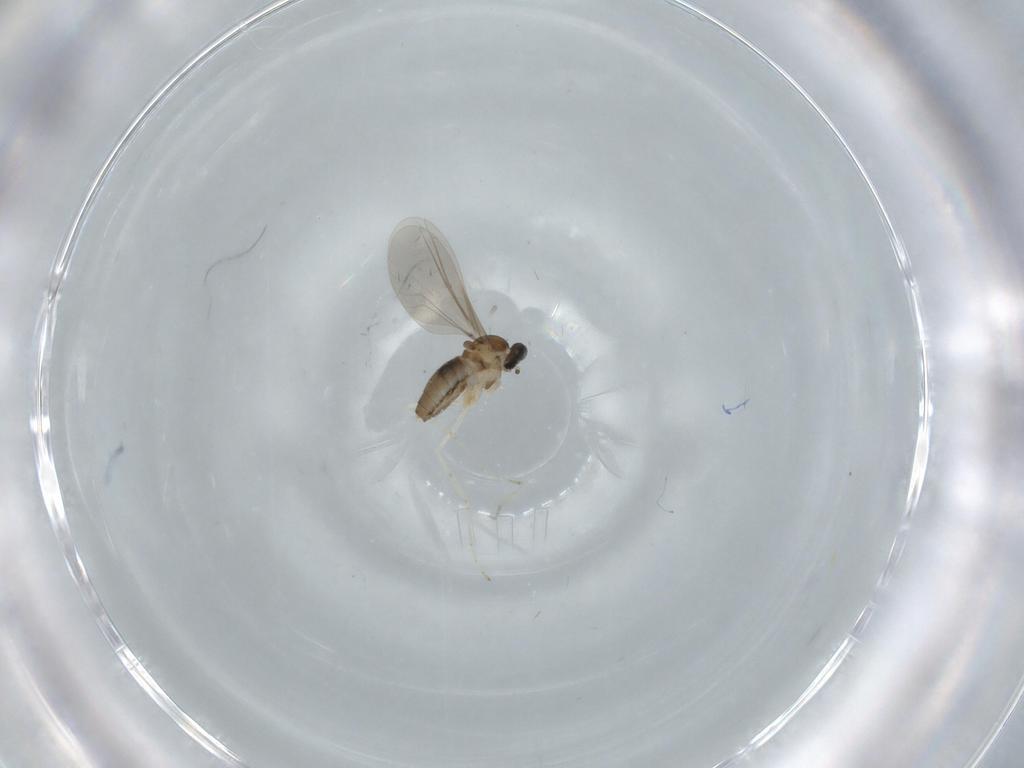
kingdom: Animalia
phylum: Arthropoda
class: Insecta
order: Diptera
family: Cecidomyiidae
